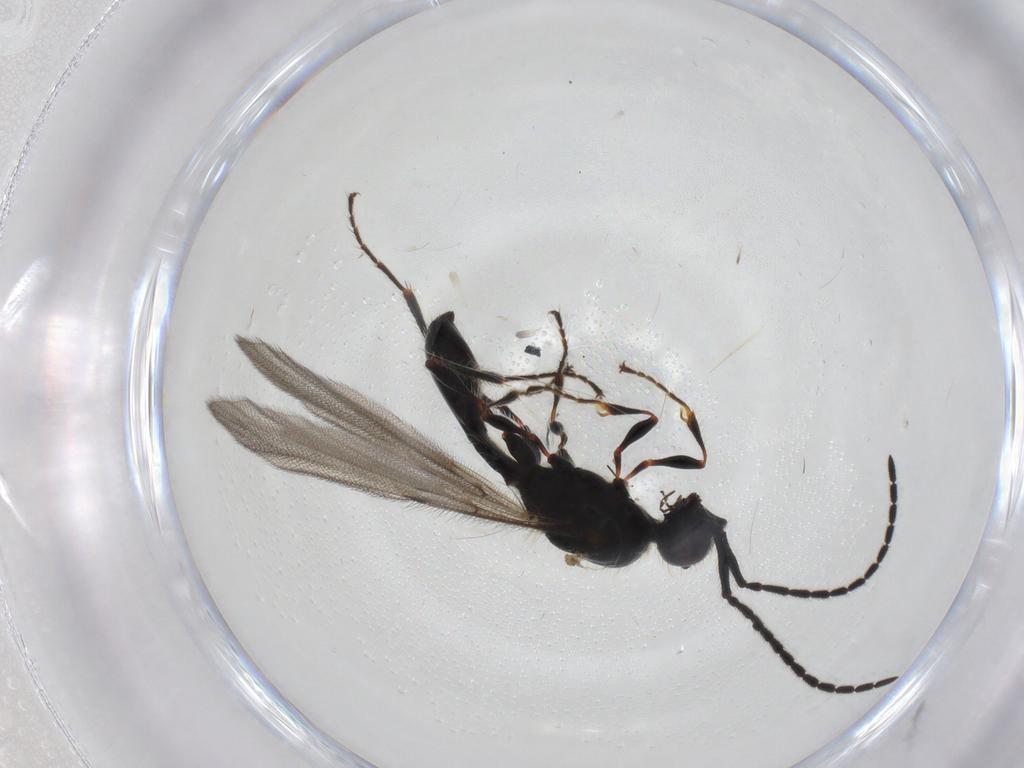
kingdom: Animalia
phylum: Arthropoda
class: Insecta
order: Hymenoptera
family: Diapriidae
